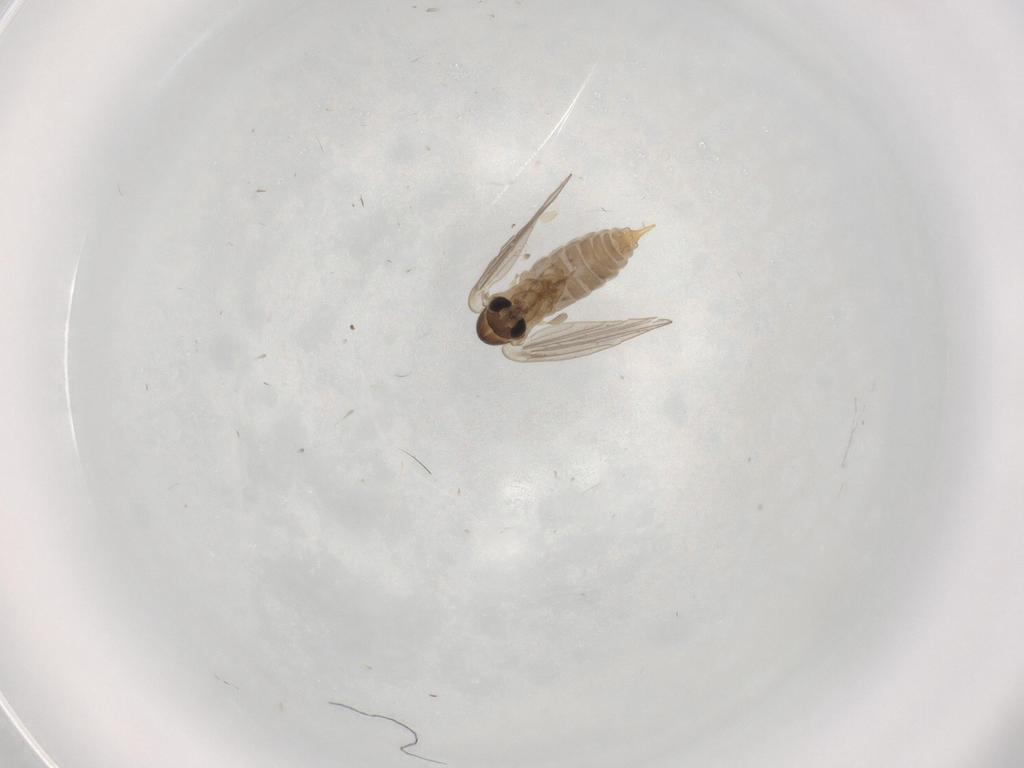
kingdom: Animalia
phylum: Arthropoda
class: Insecta
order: Diptera
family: Psychodidae
